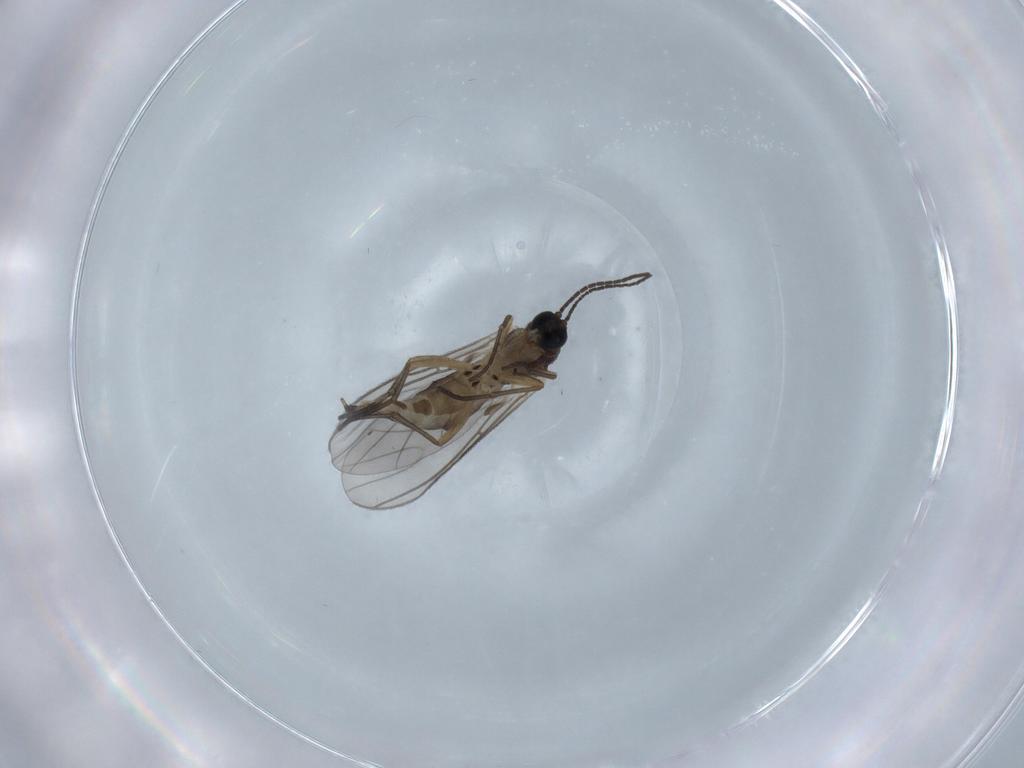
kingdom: Animalia
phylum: Arthropoda
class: Insecta
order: Diptera
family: Sciaridae
